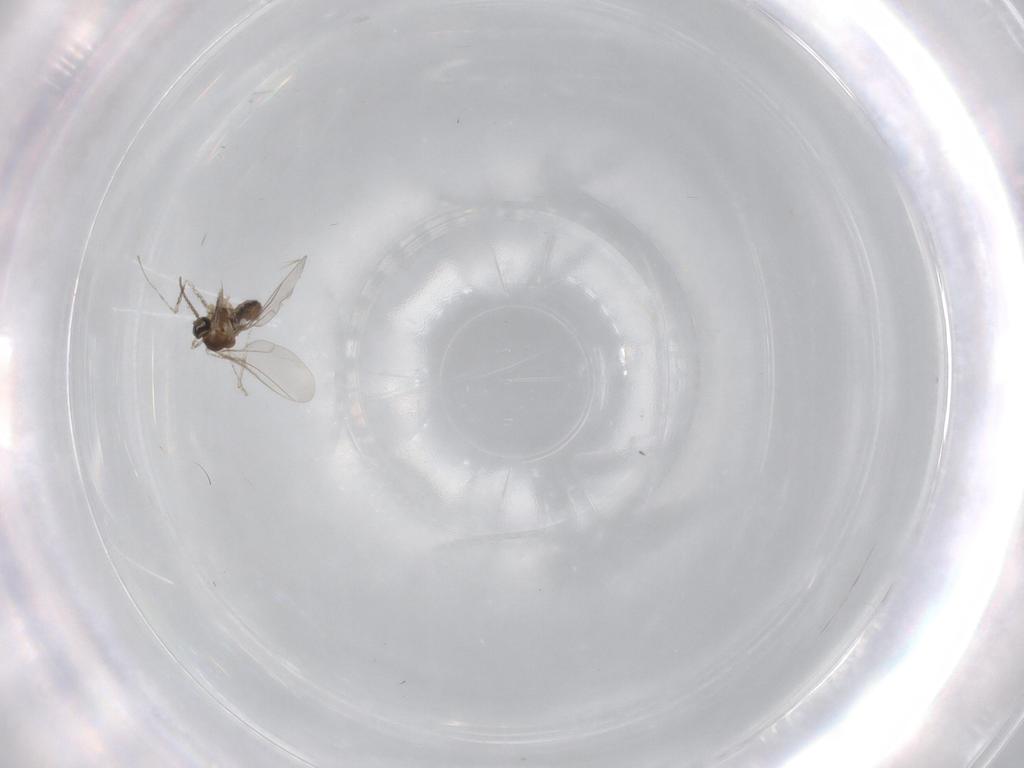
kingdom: Animalia
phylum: Arthropoda
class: Insecta
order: Diptera
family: Cecidomyiidae
